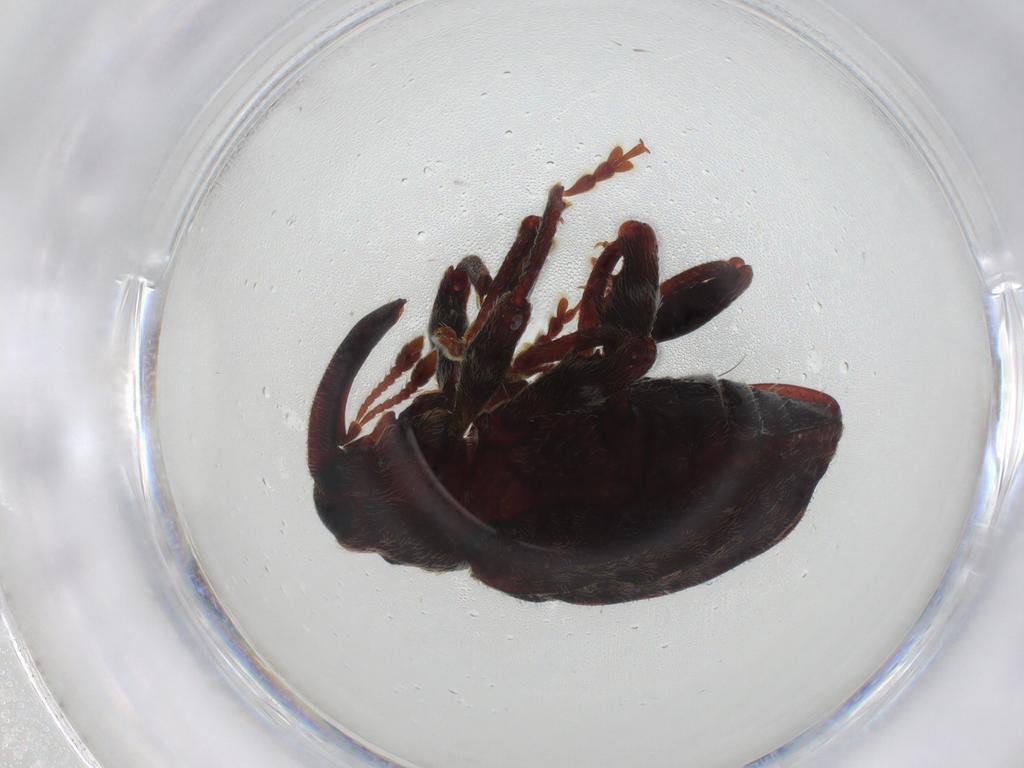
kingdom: Animalia
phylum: Arthropoda
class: Insecta
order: Coleoptera
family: Curculionidae
